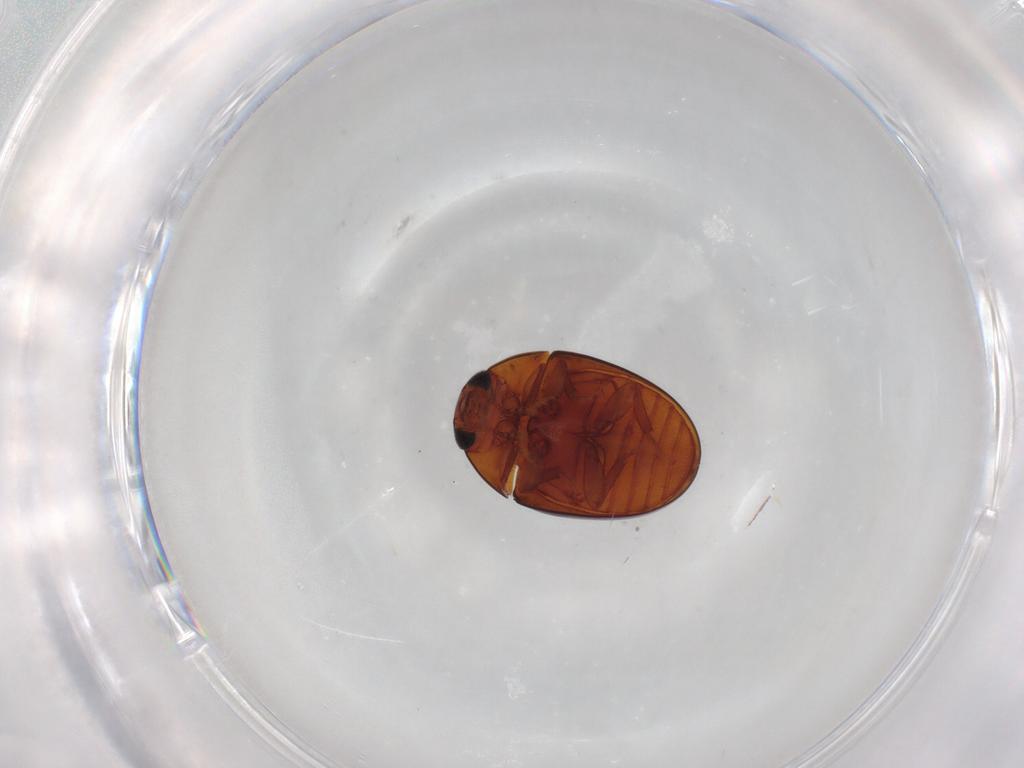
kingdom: Animalia
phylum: Arthropoda
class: Insecta
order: Coleoptera
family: Phalacridae
